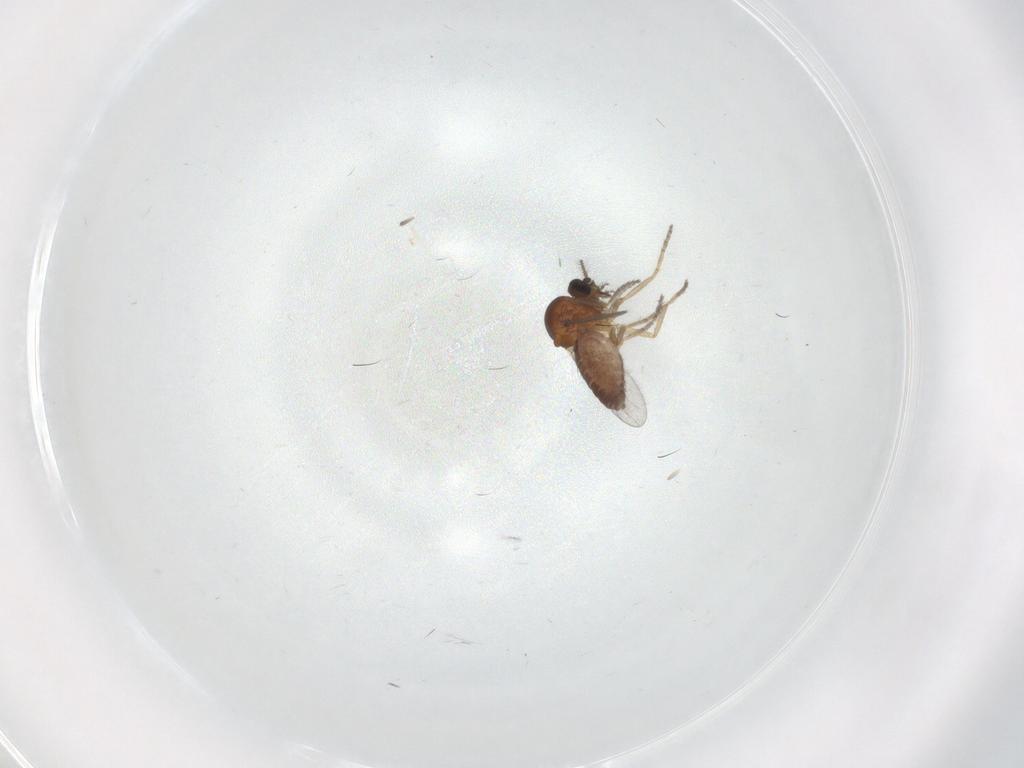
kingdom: Animalia
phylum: Arthropoda
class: Insecta
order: Diptera
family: Ceratopogonidae
